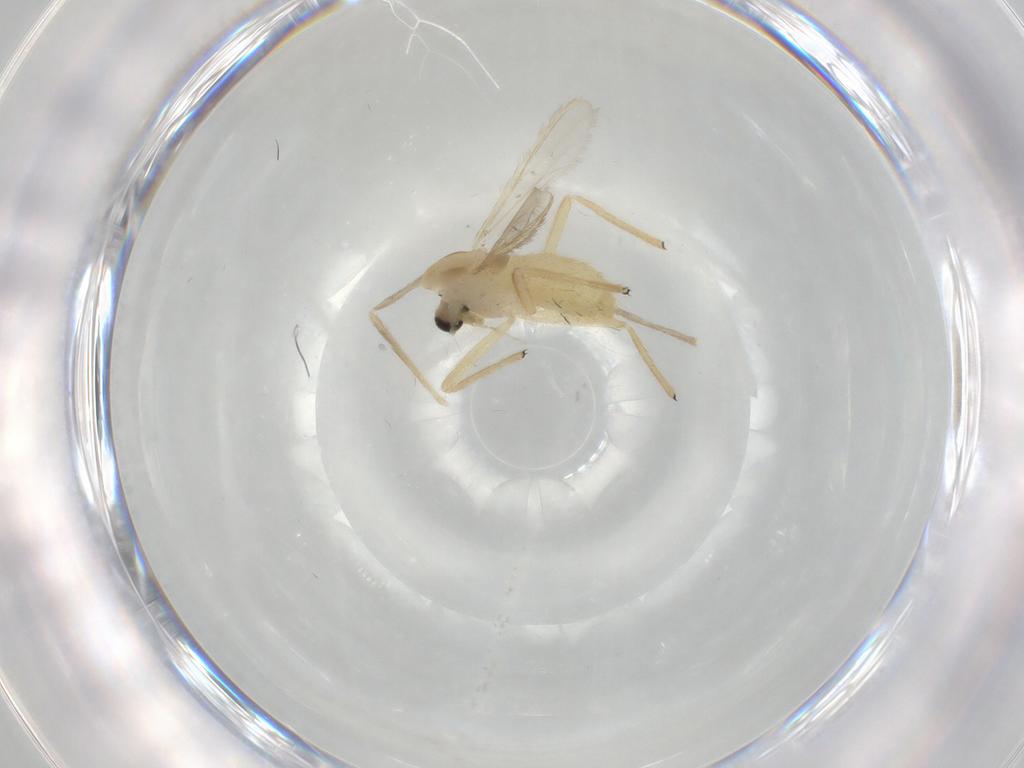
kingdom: Animalia
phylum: Arthropoda
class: Insecta
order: Diptera
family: Chironomidae
